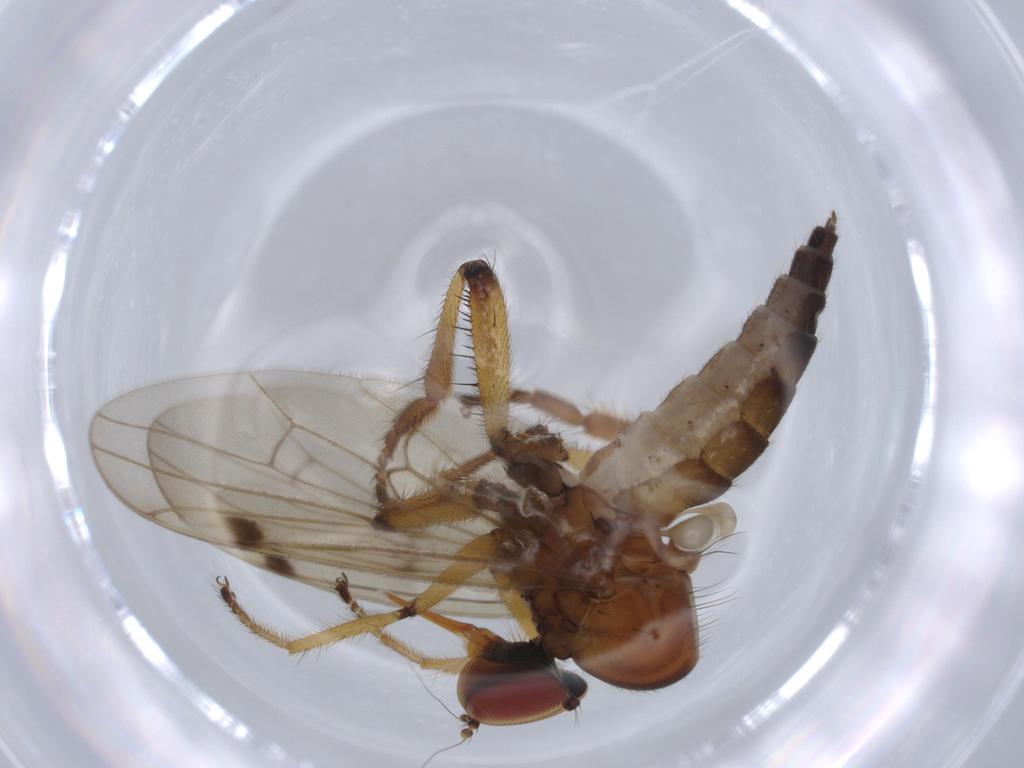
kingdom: Animalia
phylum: Arthropoda
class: Insecta
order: Diptera
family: Hybotidae
